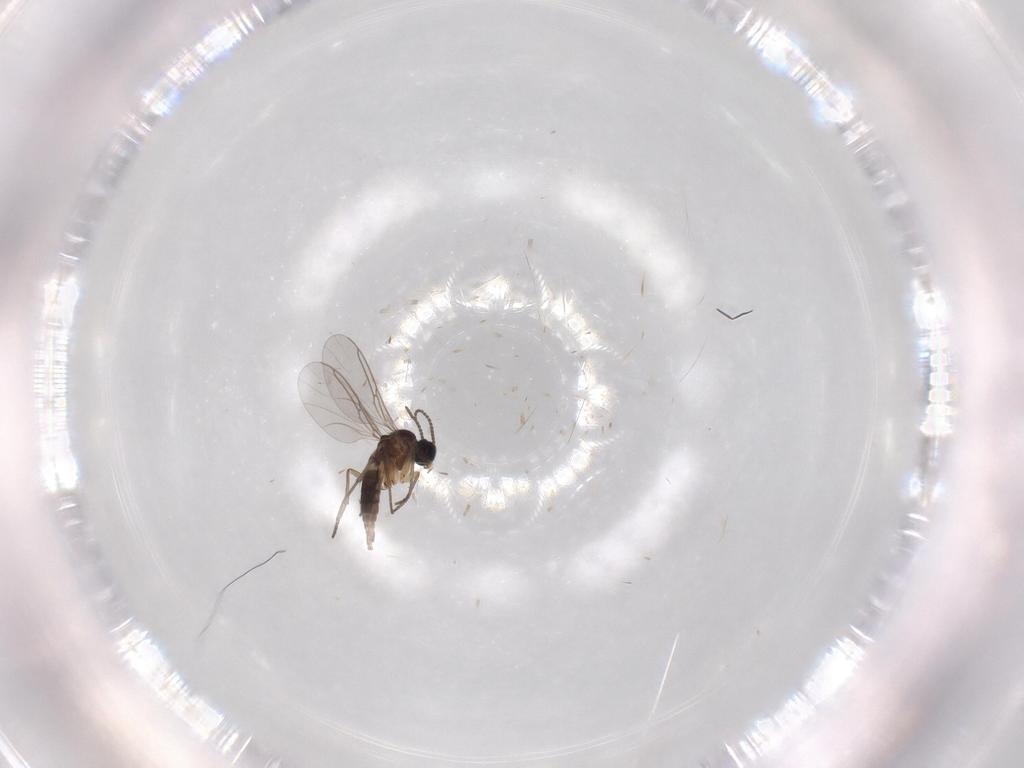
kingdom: Animalia
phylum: Arthropoda
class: Insecta
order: Diptera
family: Sciaridae
